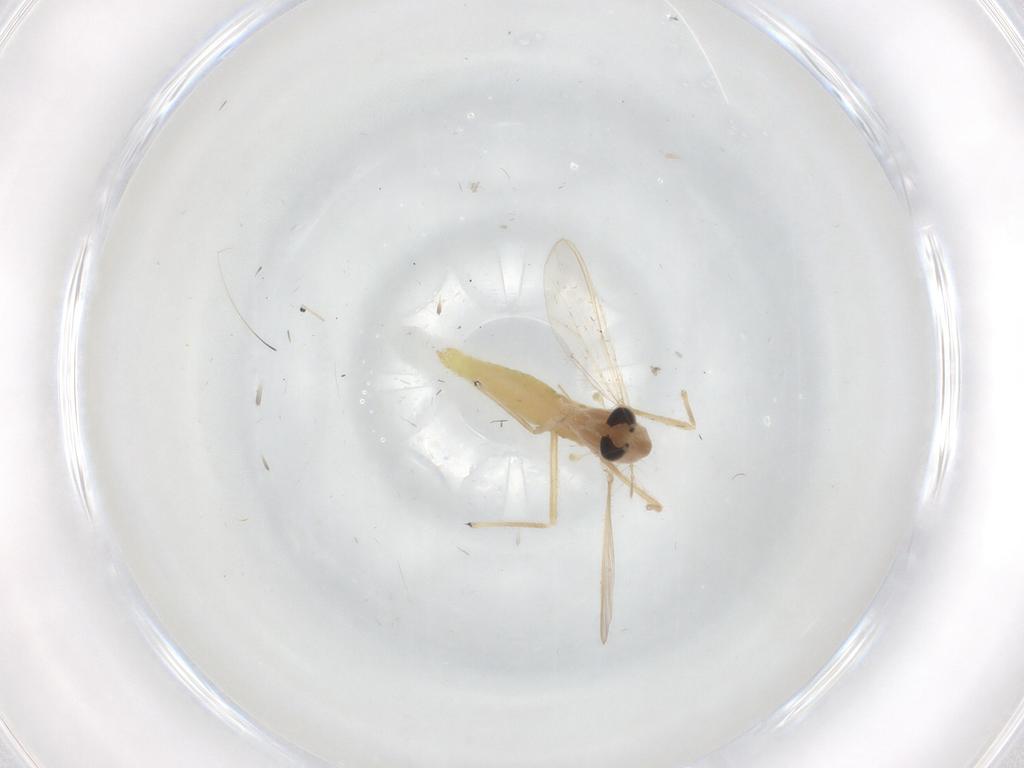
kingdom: Animalia
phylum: Arthropoda
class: Insecta
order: Diptera
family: Chironomidae
